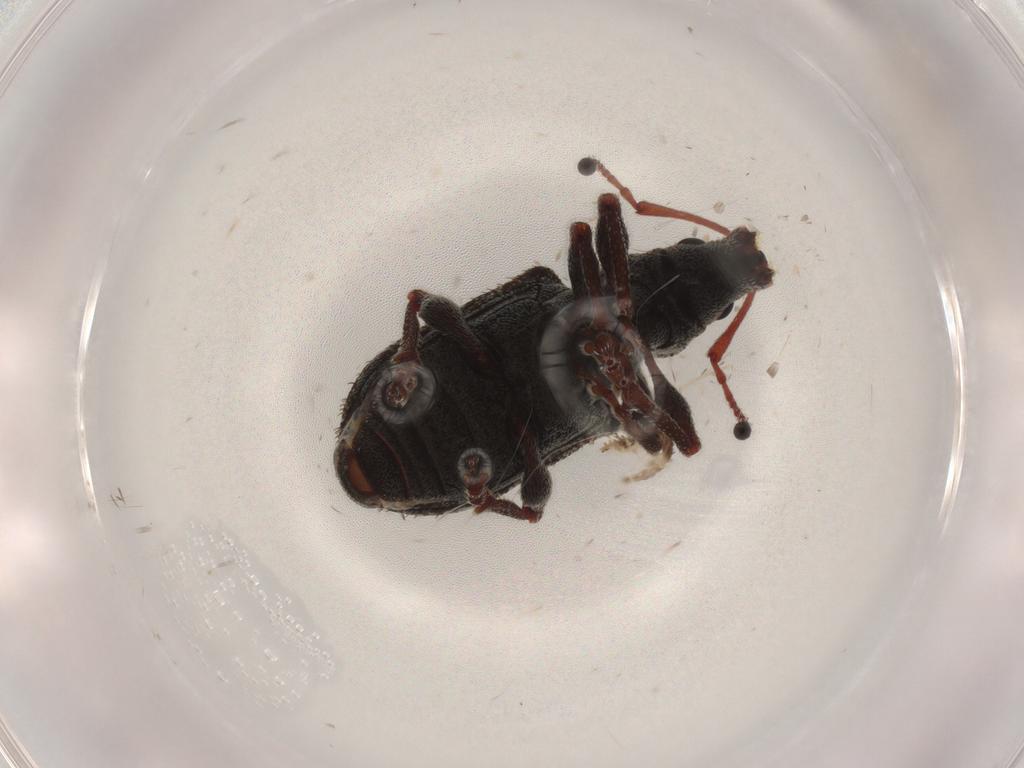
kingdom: Animalia
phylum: Arthropoda
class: Insecta
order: Coleoptera
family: Curculionidae
